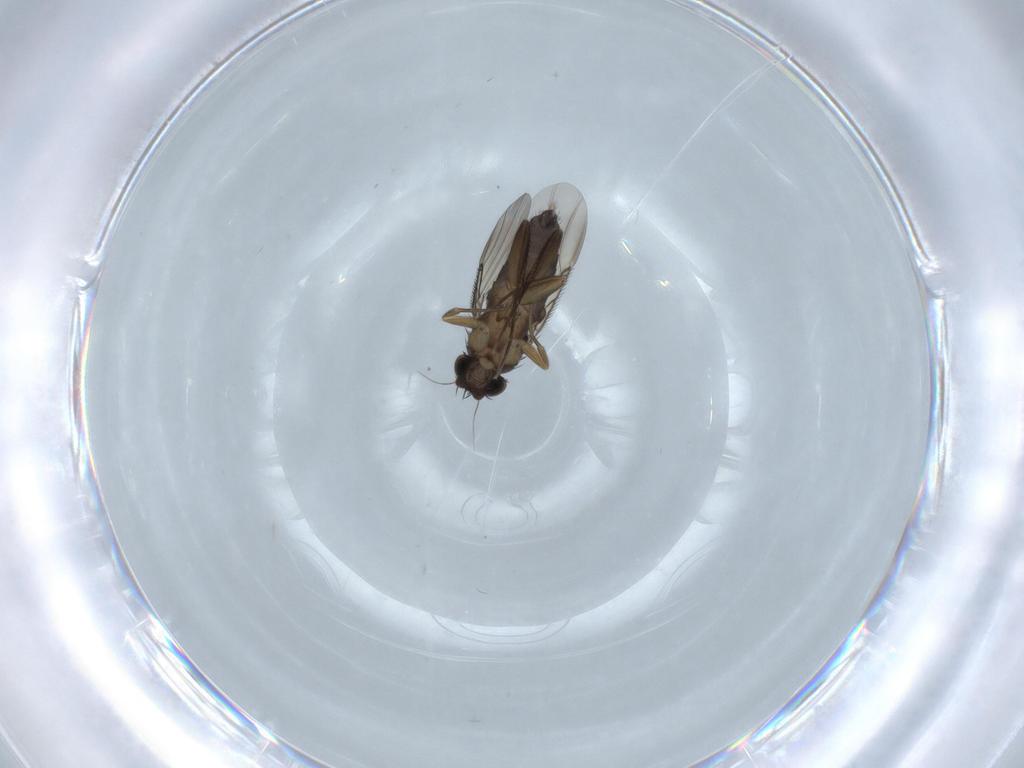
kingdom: Animalia
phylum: Arthropoda
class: Insecta
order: Diptera
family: Phoridae
